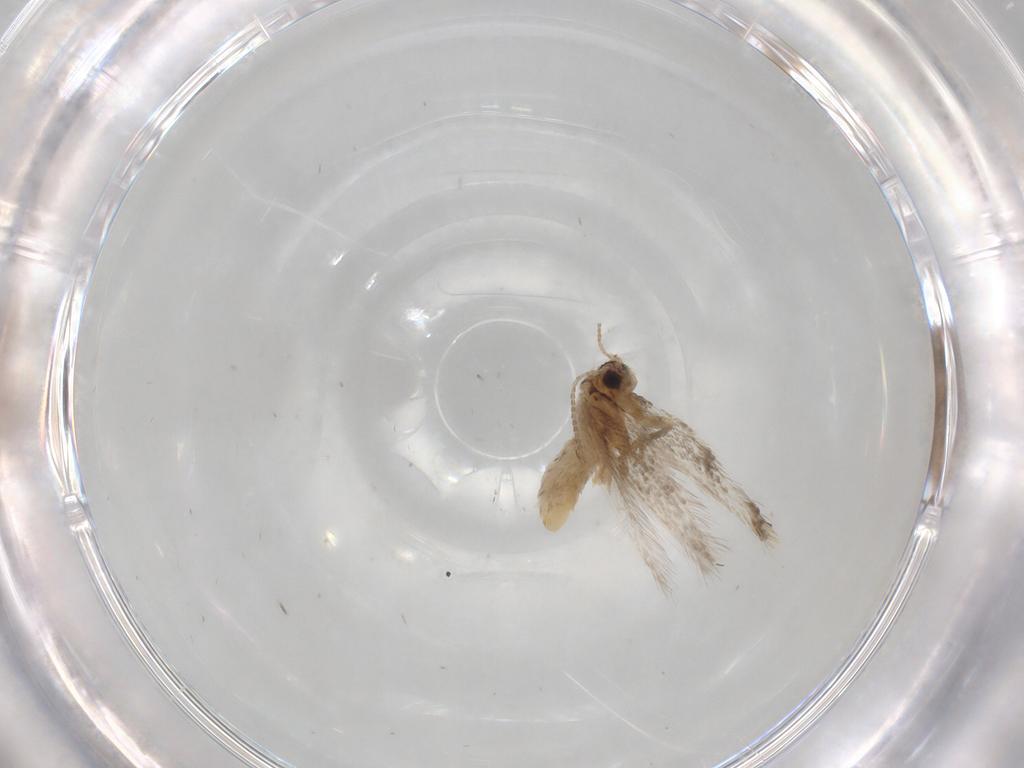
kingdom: Animalia
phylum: Arthropoda
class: Insecta
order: Lepidoptera
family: Nepticulidae
